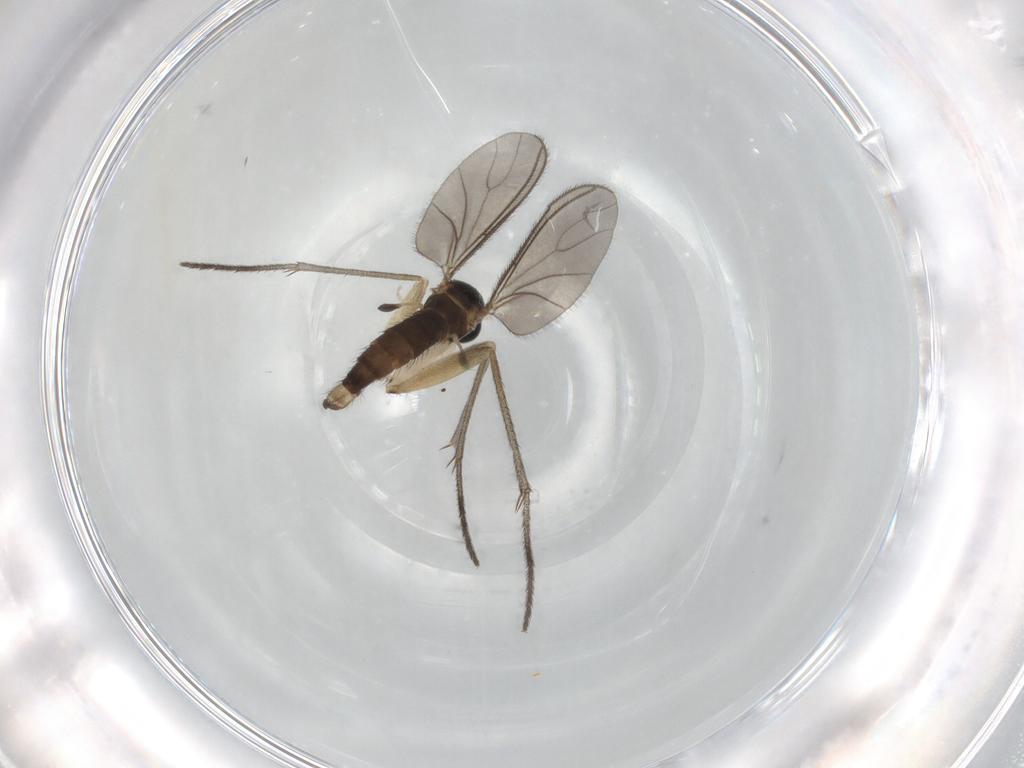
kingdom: Animalia
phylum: Arthropoda
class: Insecta
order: Diptera
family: Sciaridae
